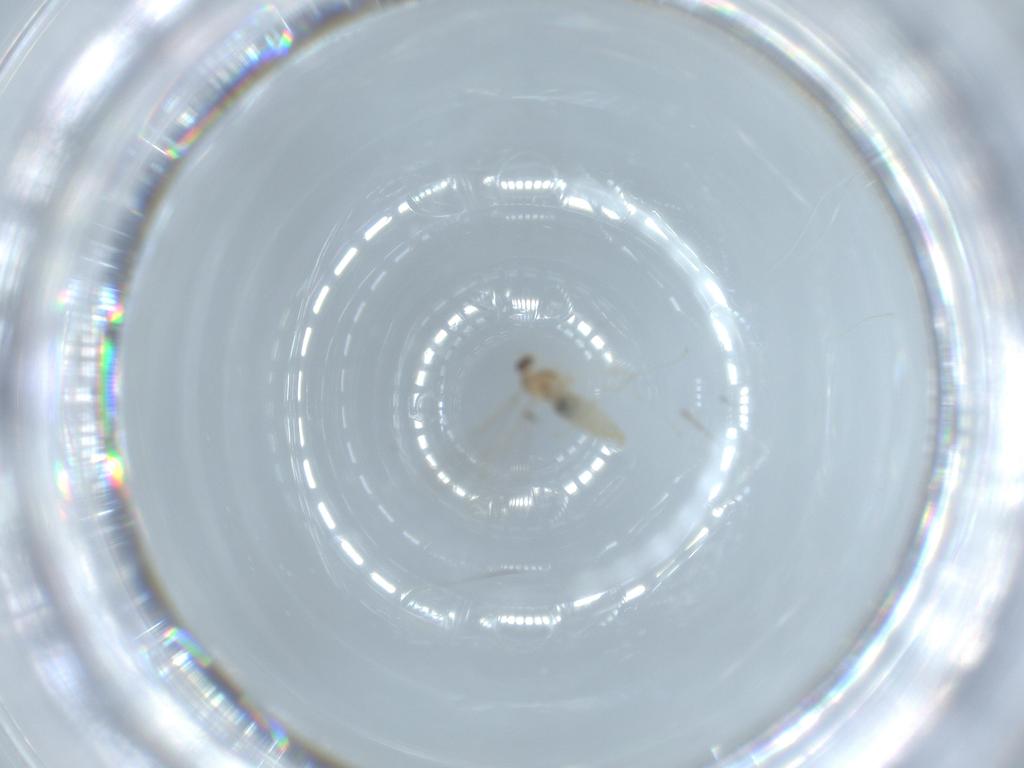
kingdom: Animalia
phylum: Arthropoda
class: Insecta
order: Diptera
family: Cecidomyiidae
